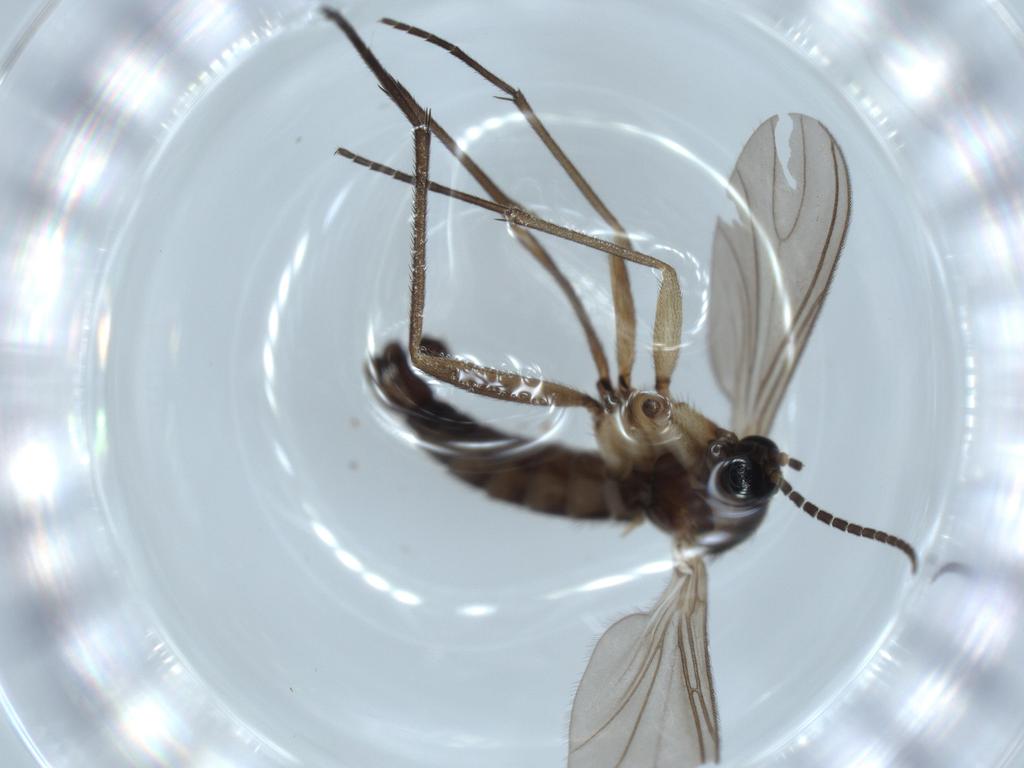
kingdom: Animalia
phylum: Arthropoda
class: Insecta
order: Diptera
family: Sciaridae
